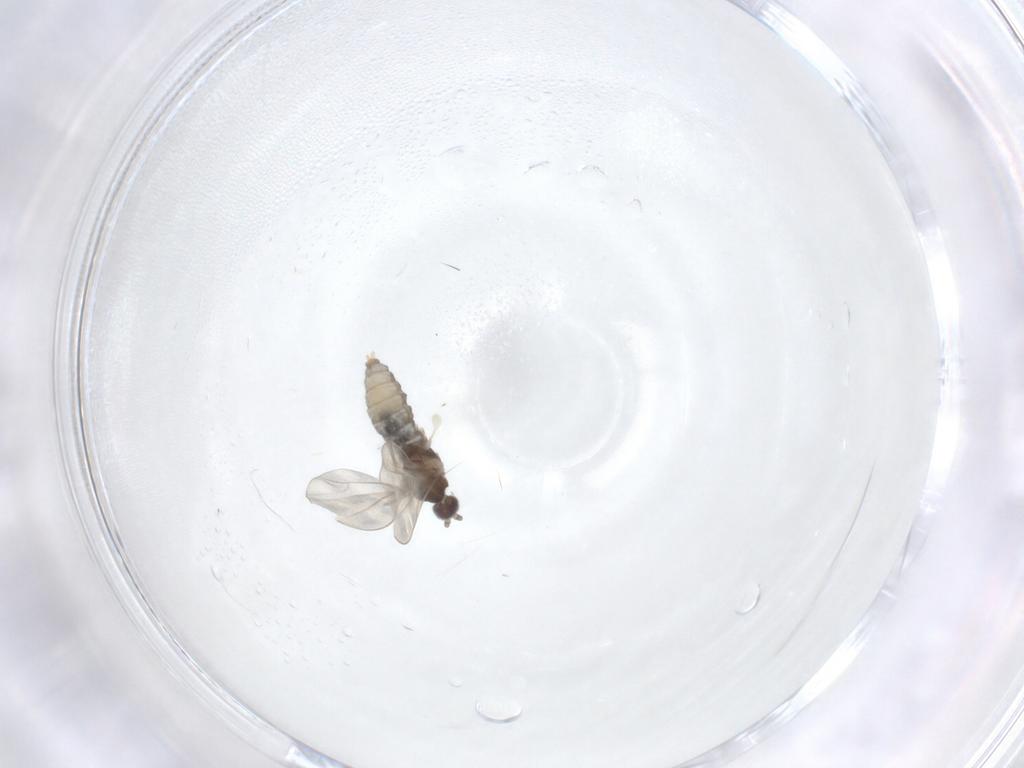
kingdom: Animalia
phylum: Arthropoda
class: Insecta
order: Diptera
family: Cecidomyiidae
